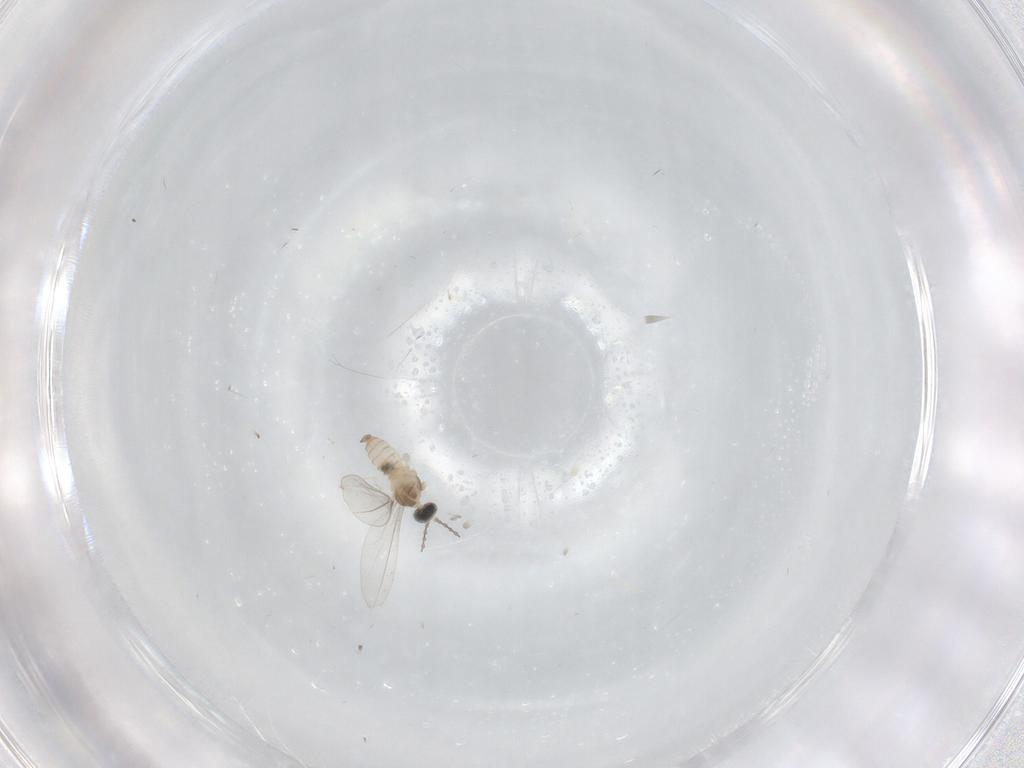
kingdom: Animalia
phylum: Arthropoda
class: Insecta
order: Diptera
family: Cecidomyiidae
